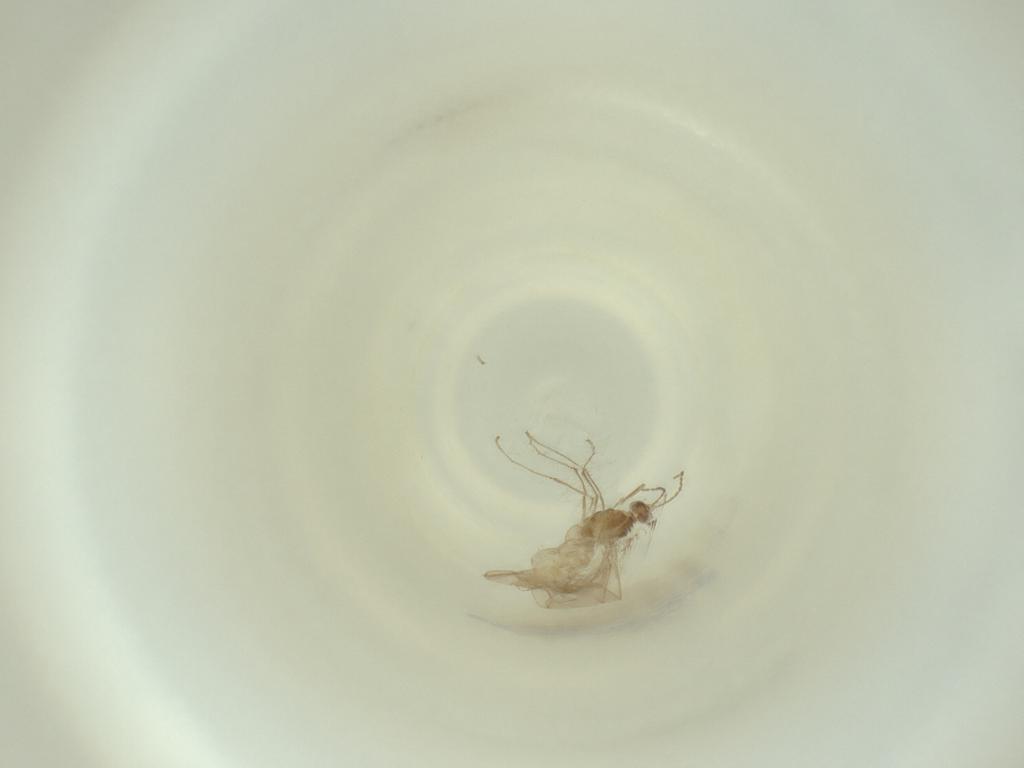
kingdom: Animalia
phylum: Arthropoda
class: Insecta
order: Diptera
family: Cecidomyiidae
